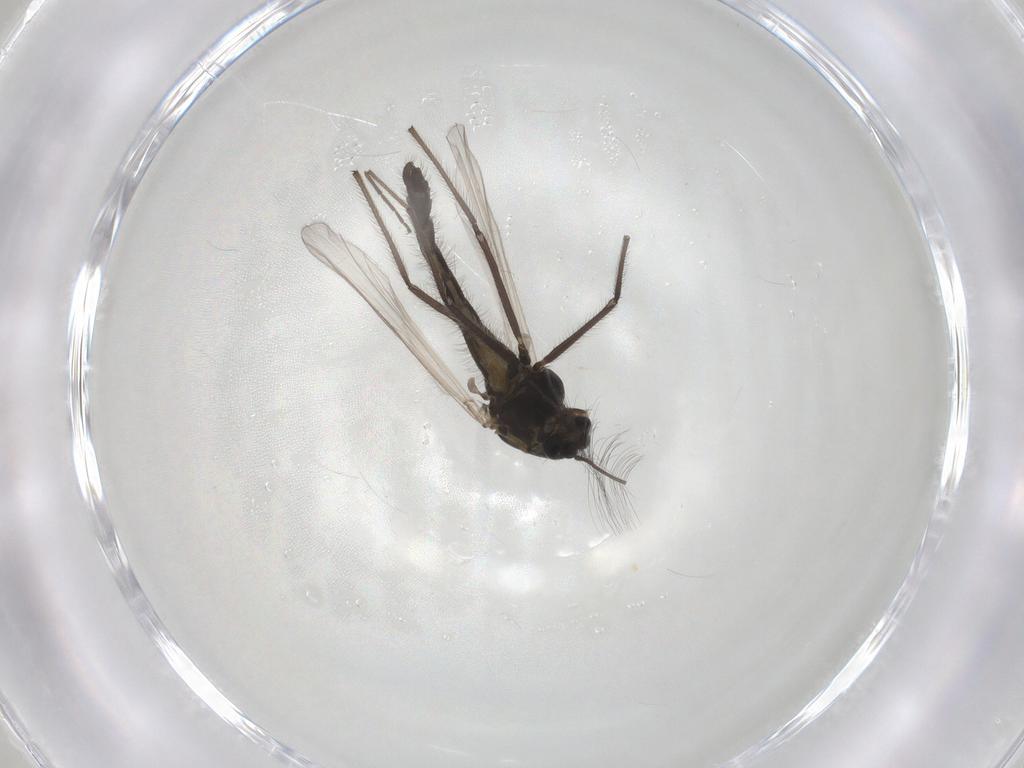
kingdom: Animalia
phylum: Arthropoda
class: Insecta
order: Diptera
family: Chironomidae
